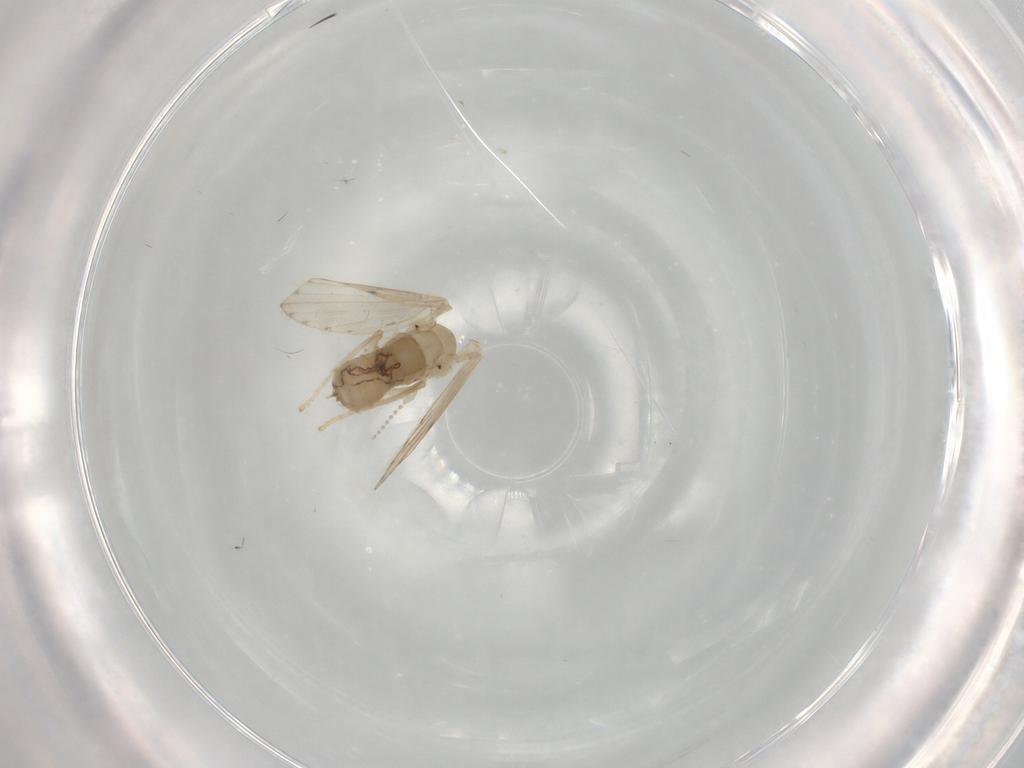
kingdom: Animalia
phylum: Arthropoda
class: Insecta
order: Diptera
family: Psychodidae
